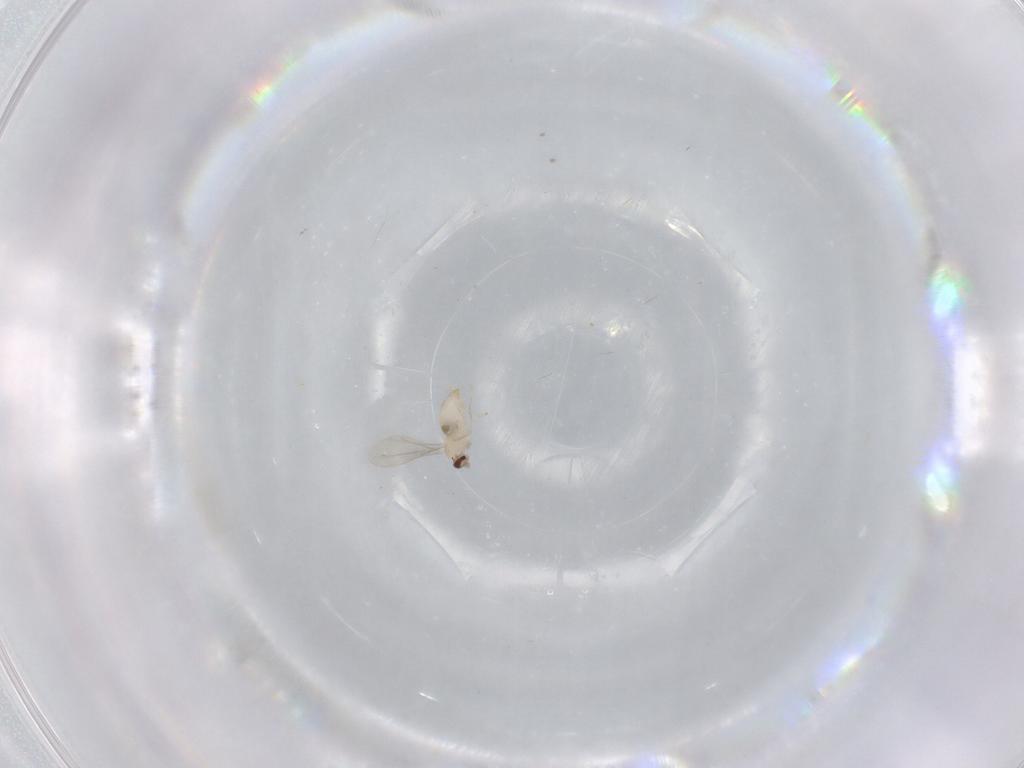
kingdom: Animalia
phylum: Arthropoda
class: Insecta
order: Diptera
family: Cecidomyiidae
